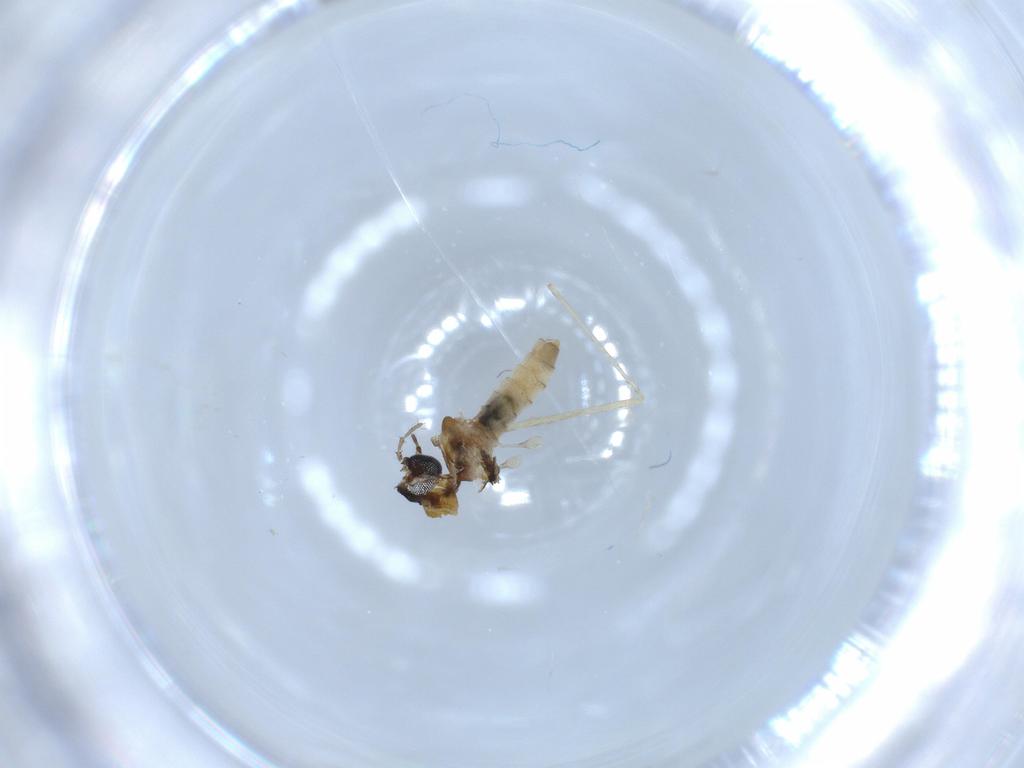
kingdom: Animalia
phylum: Arthropoda
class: Insecta
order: Diptera
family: Cecidomyiidae
